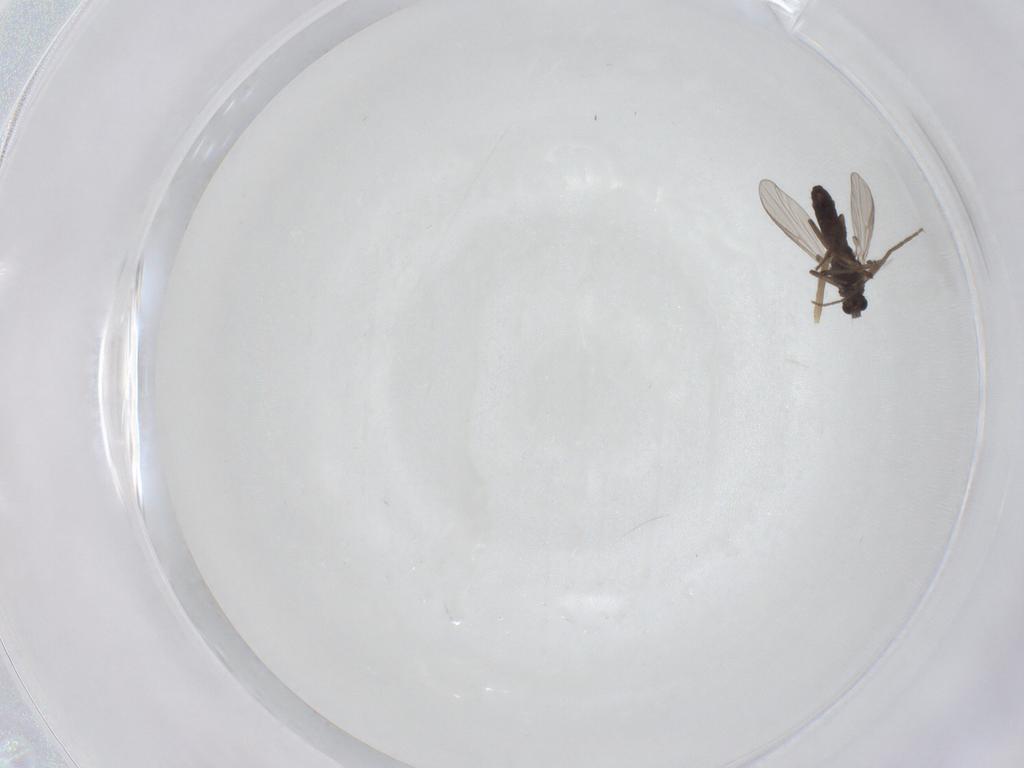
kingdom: Animalia
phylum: Arthropoda
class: Insecta
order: Diptera
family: Chironomidae
